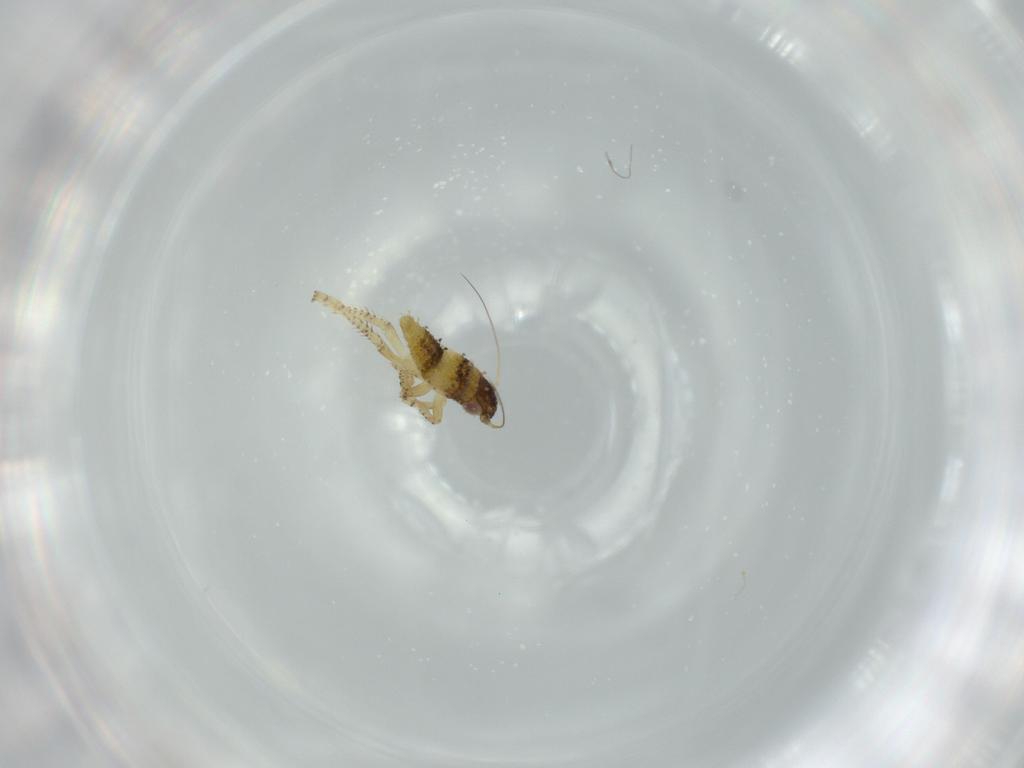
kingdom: Animalia
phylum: Arthropoda
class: Insecta
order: Hemiptera
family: Cicadellidae
